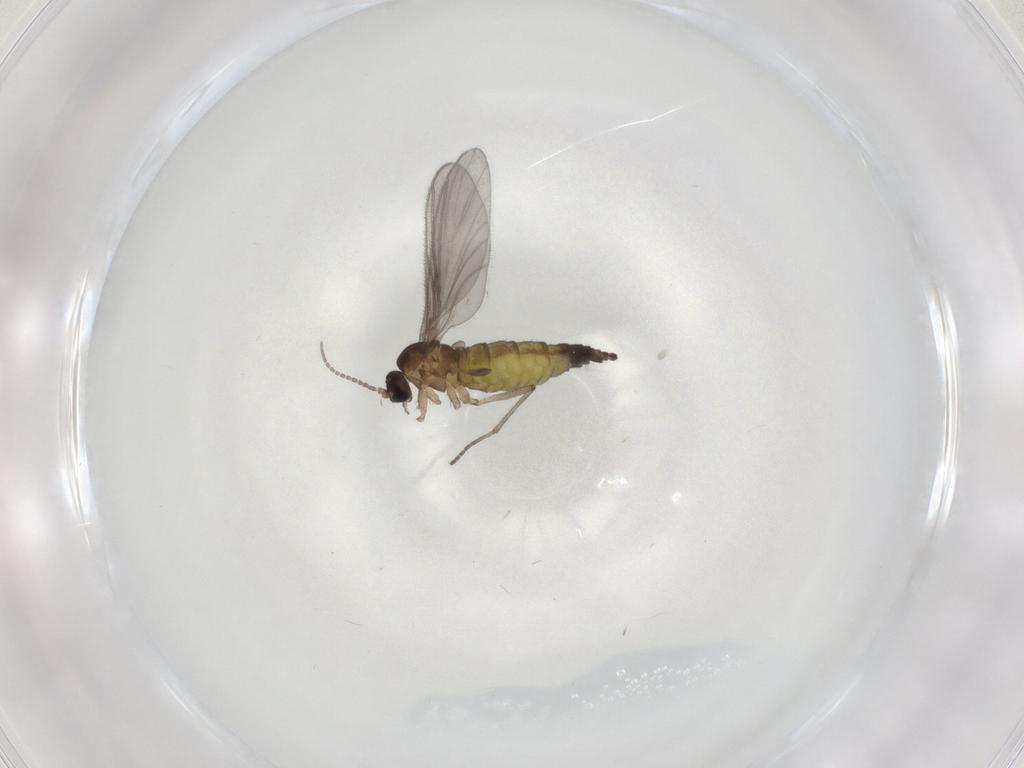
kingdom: Animalia
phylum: Arthropoda
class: Insecta
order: Diptera
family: Sciaridae
